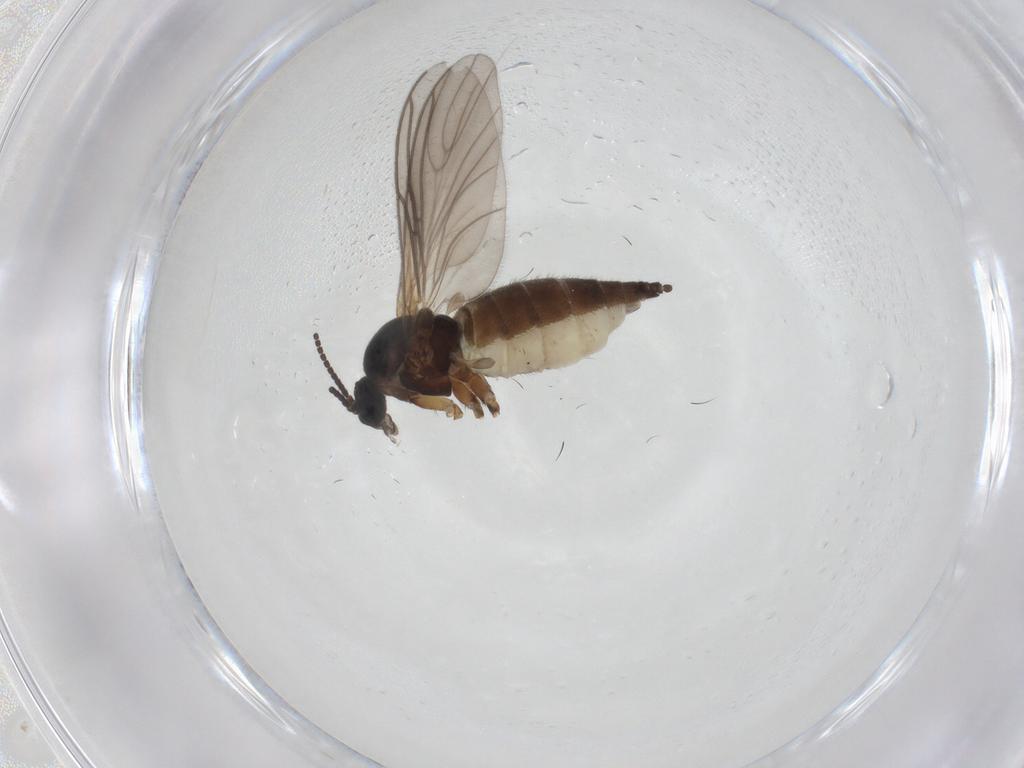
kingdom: Animalia
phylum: Arthropoda
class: Insecta
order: Diptera
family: Sciaridae
